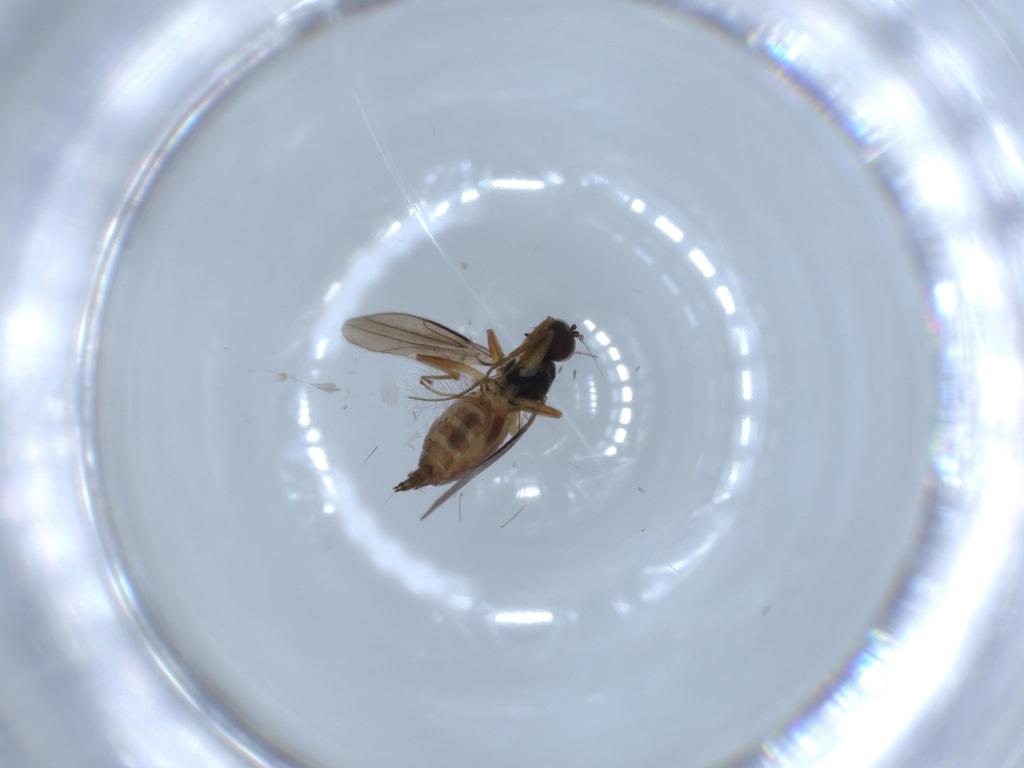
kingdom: Animalia
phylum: Arthropoda
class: Insecta
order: Diptera
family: Hybotidae
